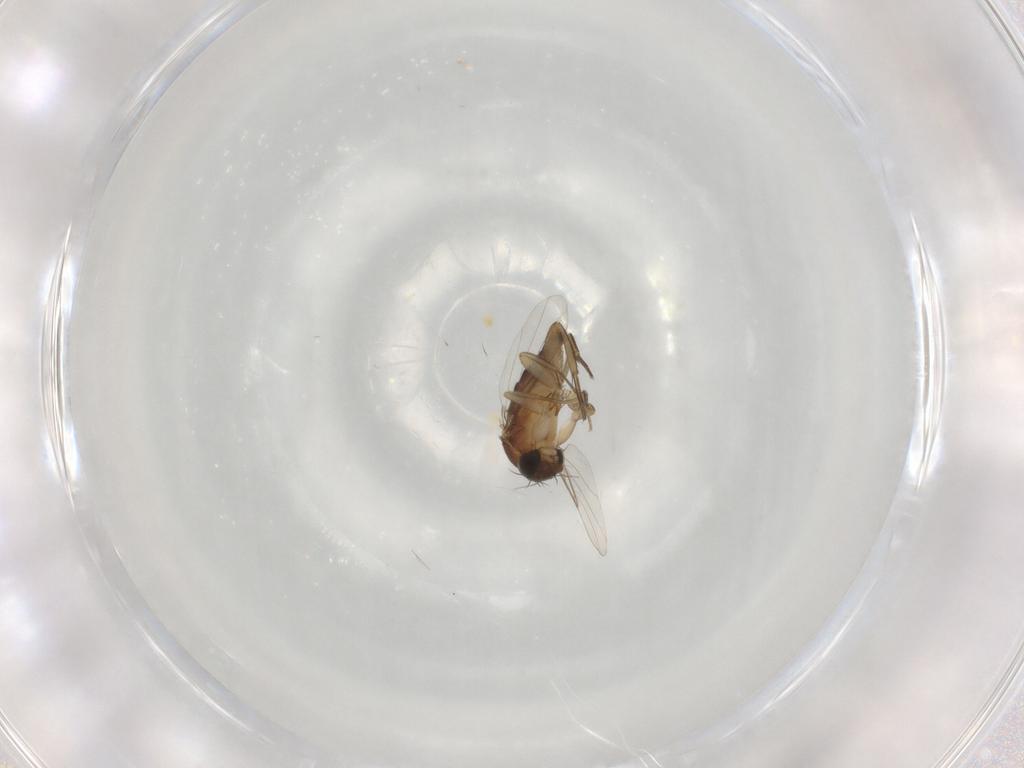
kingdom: Animalia
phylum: Arthropoda
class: Insecta
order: Diptera
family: Phoridae
